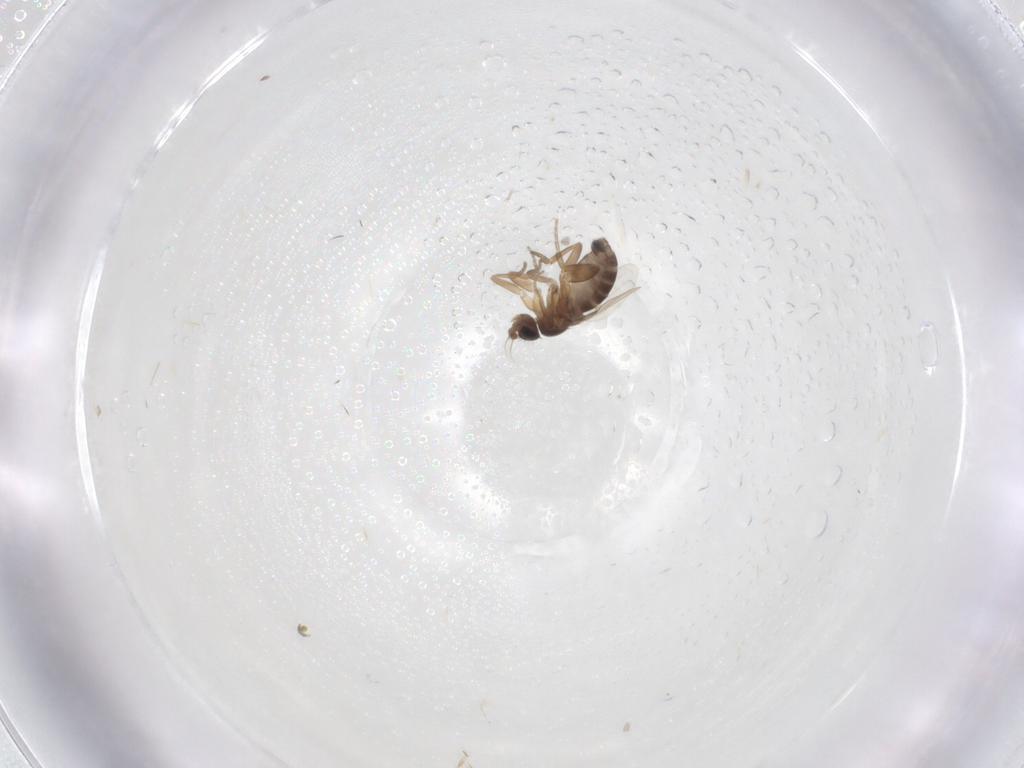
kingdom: Animalia
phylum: Arthropoda
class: Insecta
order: Diptera
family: Phoridae
